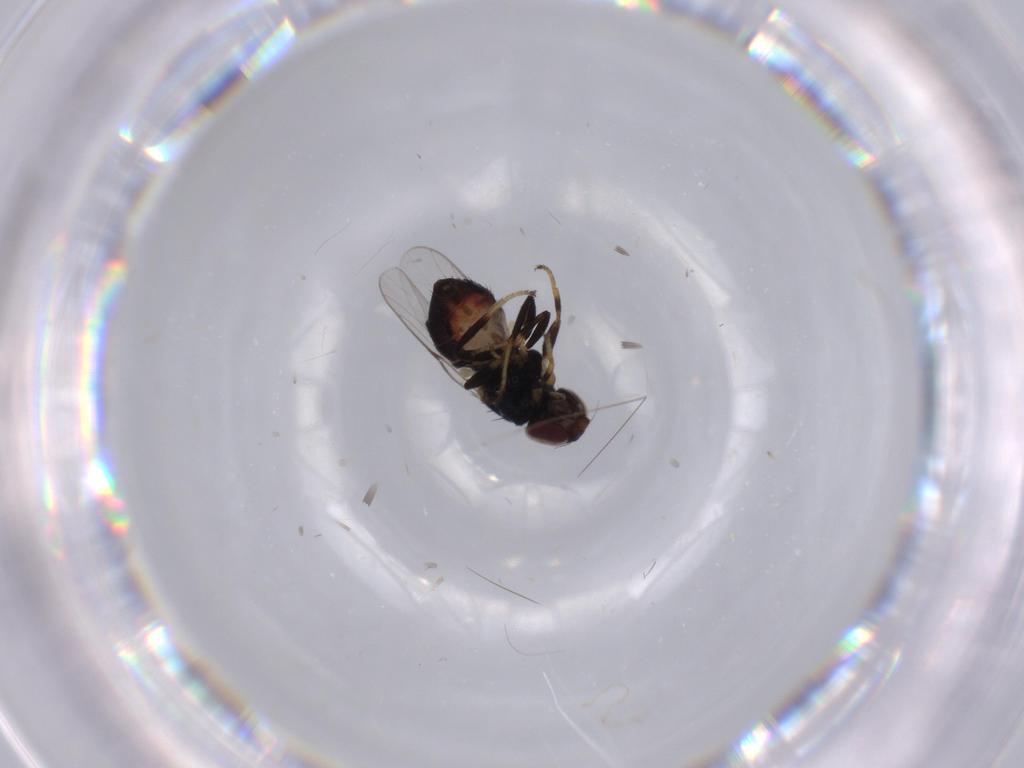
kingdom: Animalia
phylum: Arthropoda
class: Insecta
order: Diptera
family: Chloropidae
